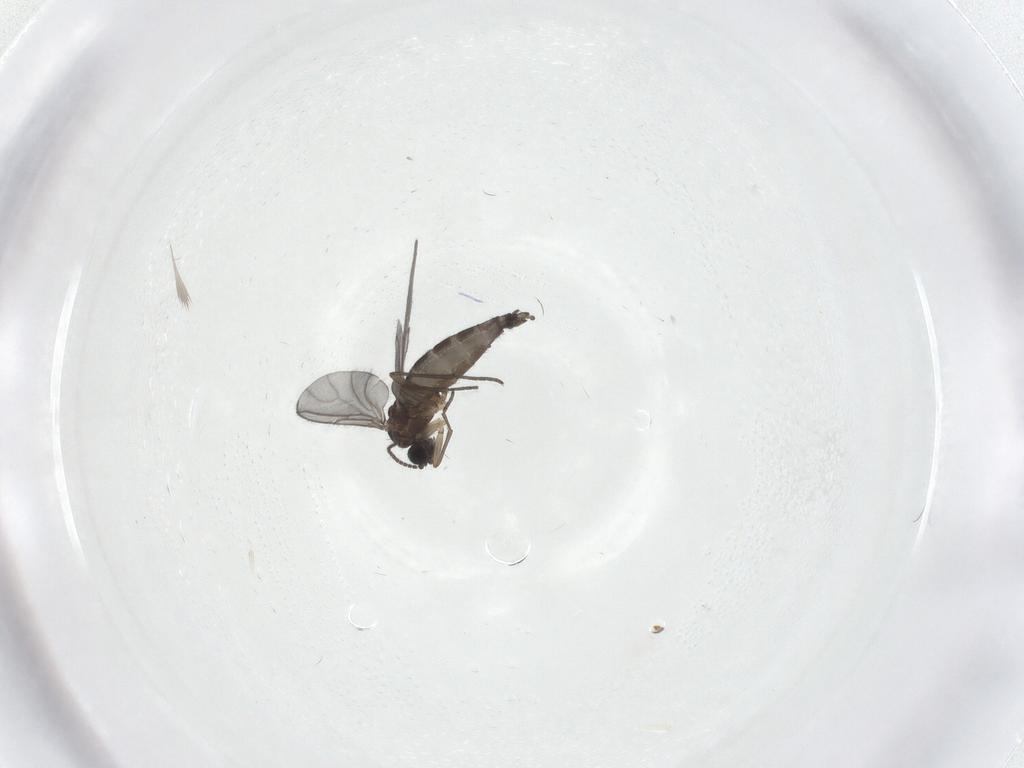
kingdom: Animalia
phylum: Arthropoda
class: Insecta
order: Diptera
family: Sciaridae
